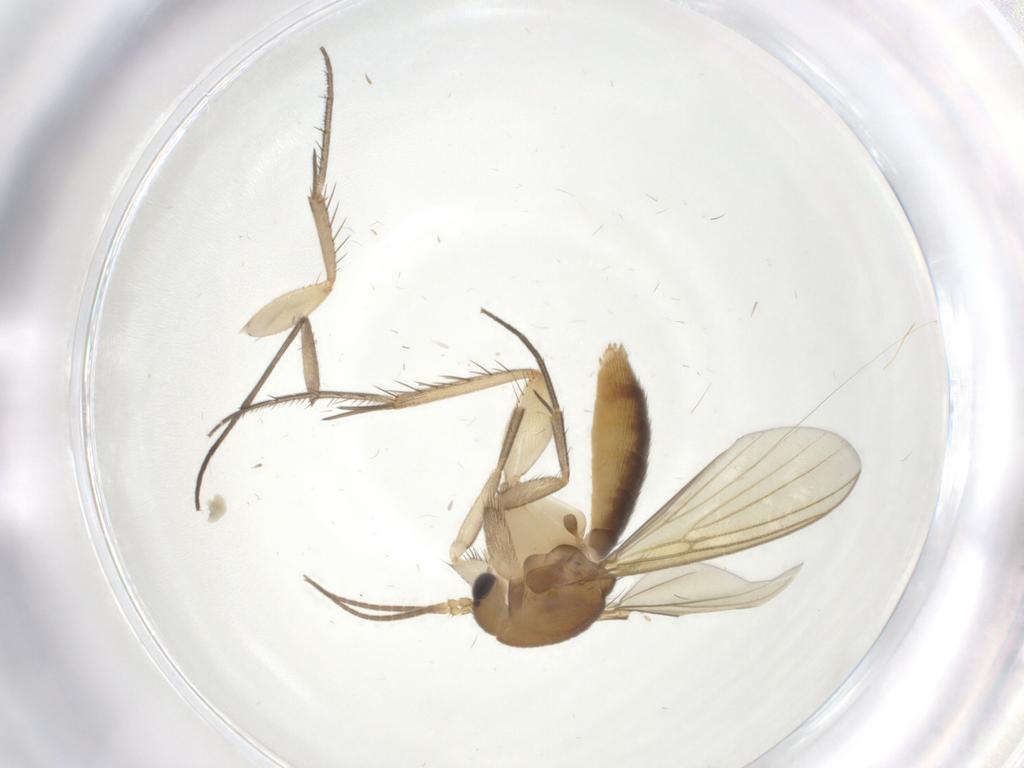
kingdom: Animalia
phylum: Arthropoda
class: Insecta
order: Diptera
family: Mycetophilidae
